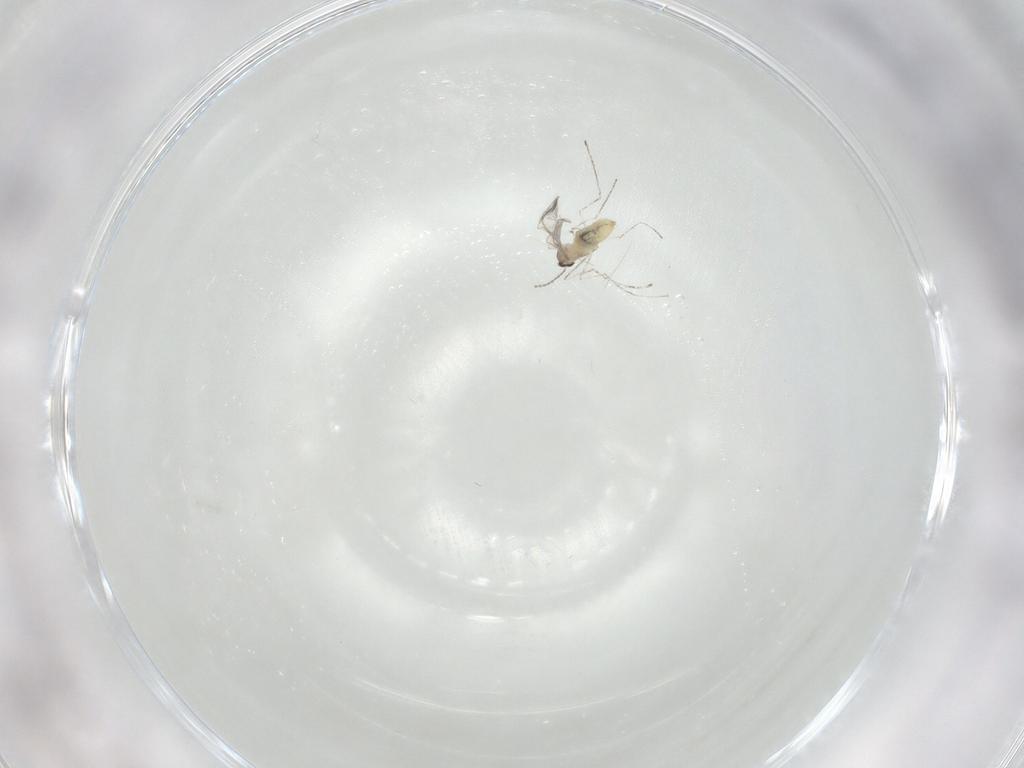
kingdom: Animalia
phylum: Arthropoda
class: Insecta
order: Diptera
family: Cecidomyiidae
